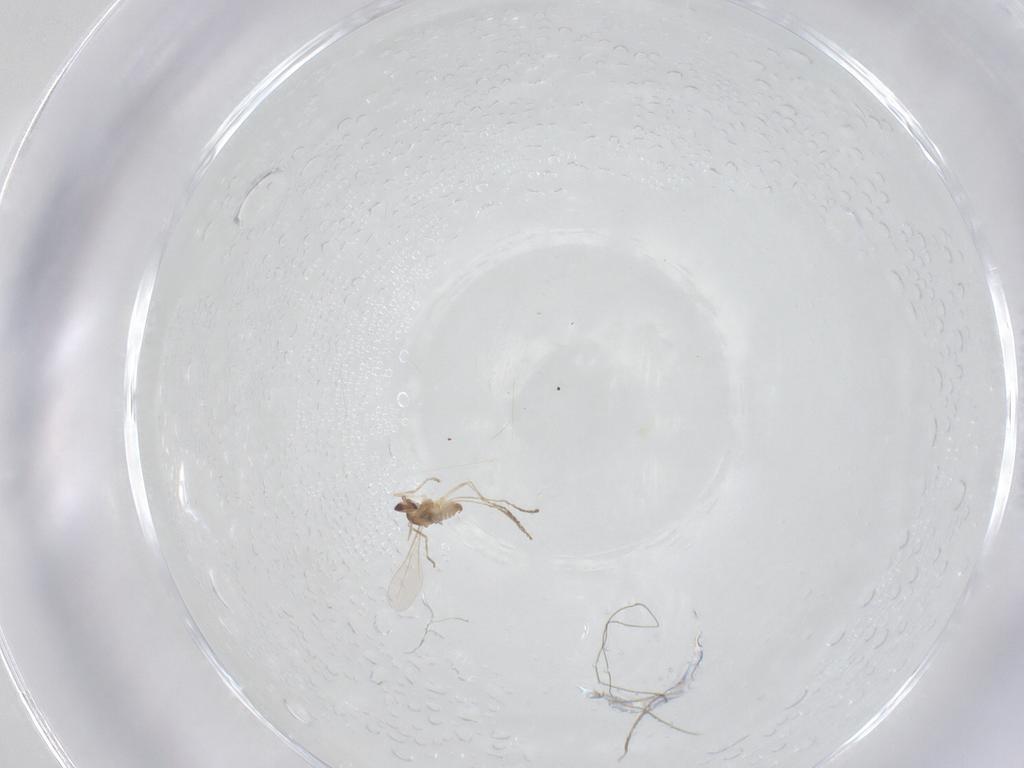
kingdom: Animalia
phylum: Arthropoda
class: Insecta
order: Diptera
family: Cecidomyiidae
